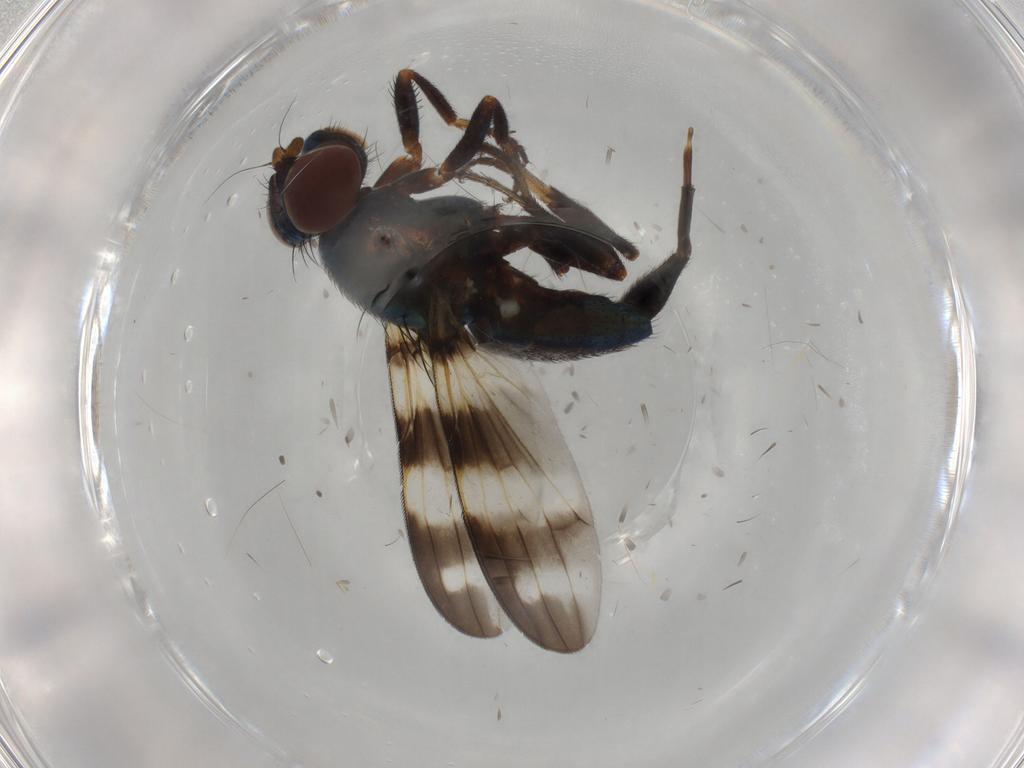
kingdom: Animalia
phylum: Arthropoda
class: Insecta
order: Diptera
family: Ulidiidae
